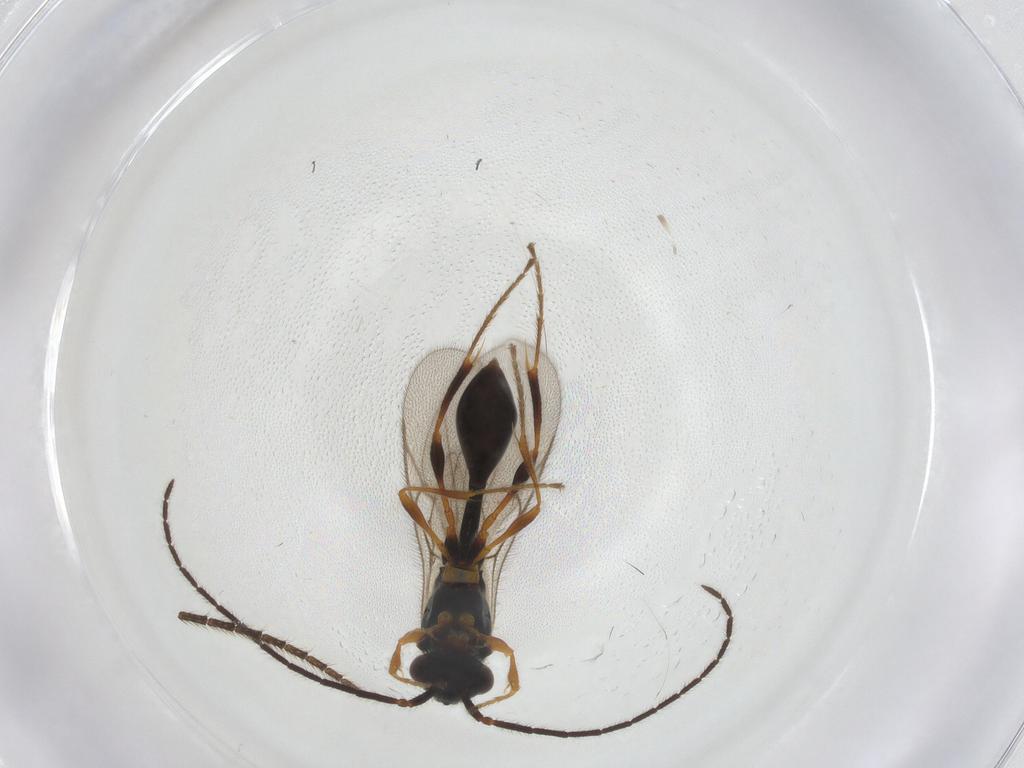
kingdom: Animalia
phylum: Arthropoda
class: Insecta
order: Hymenoptera
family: Diapriidae
